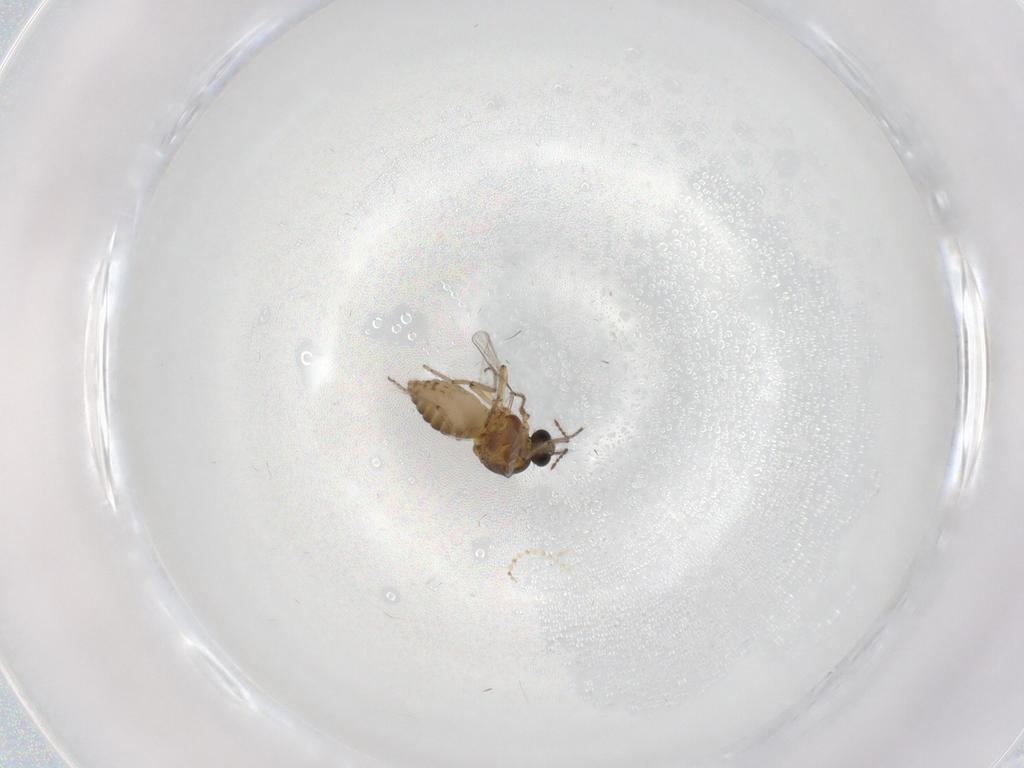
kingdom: Animalia
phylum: Arthropoda
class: Insecta
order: Diptera
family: Ceratopogonidae
